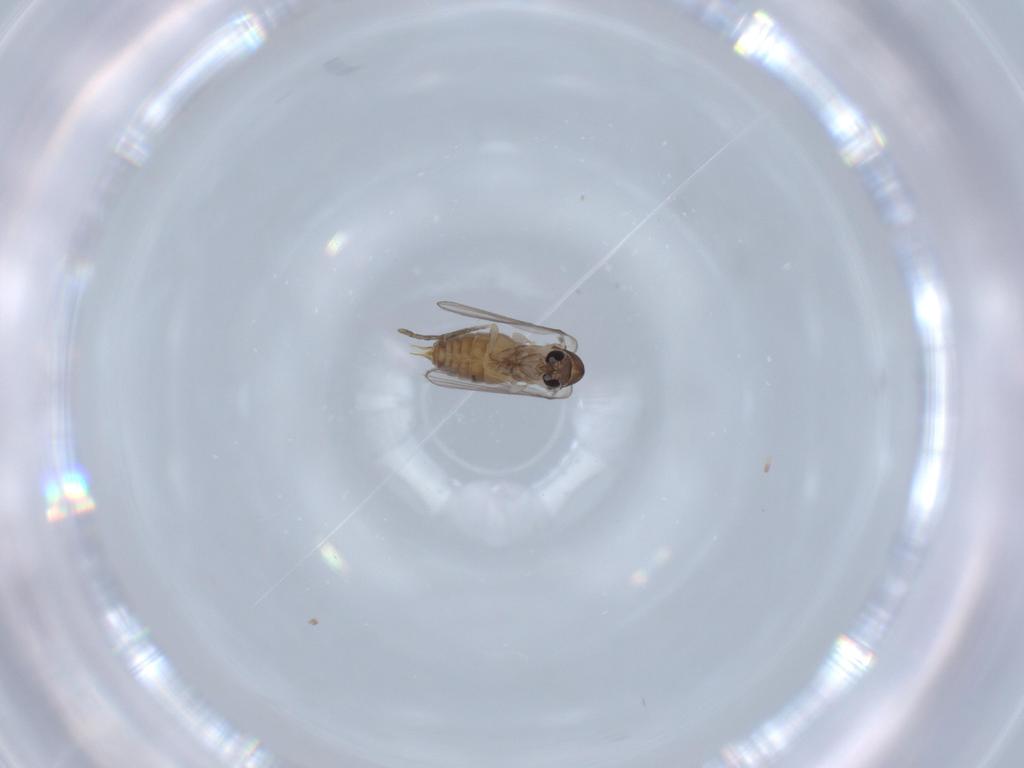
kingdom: Animalia
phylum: Arthropoda
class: Insecta
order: Diptera
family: Psychodidae
